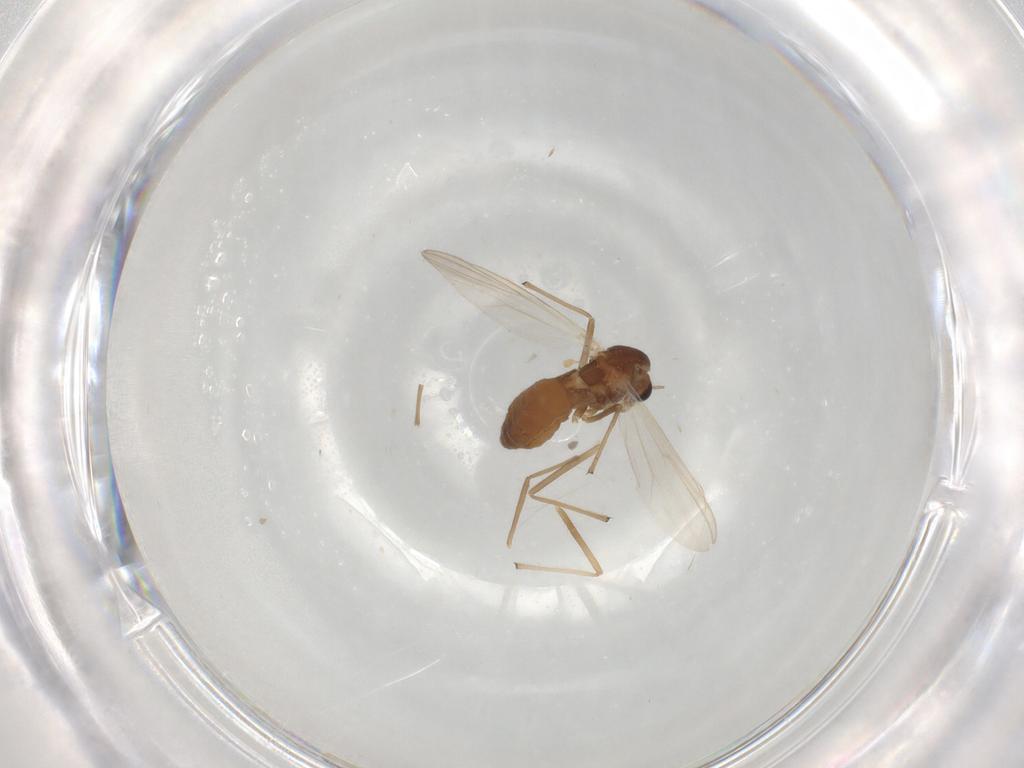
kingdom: Animalia
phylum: Arthropoda
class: Insecta
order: Diptera
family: Chironomidae
